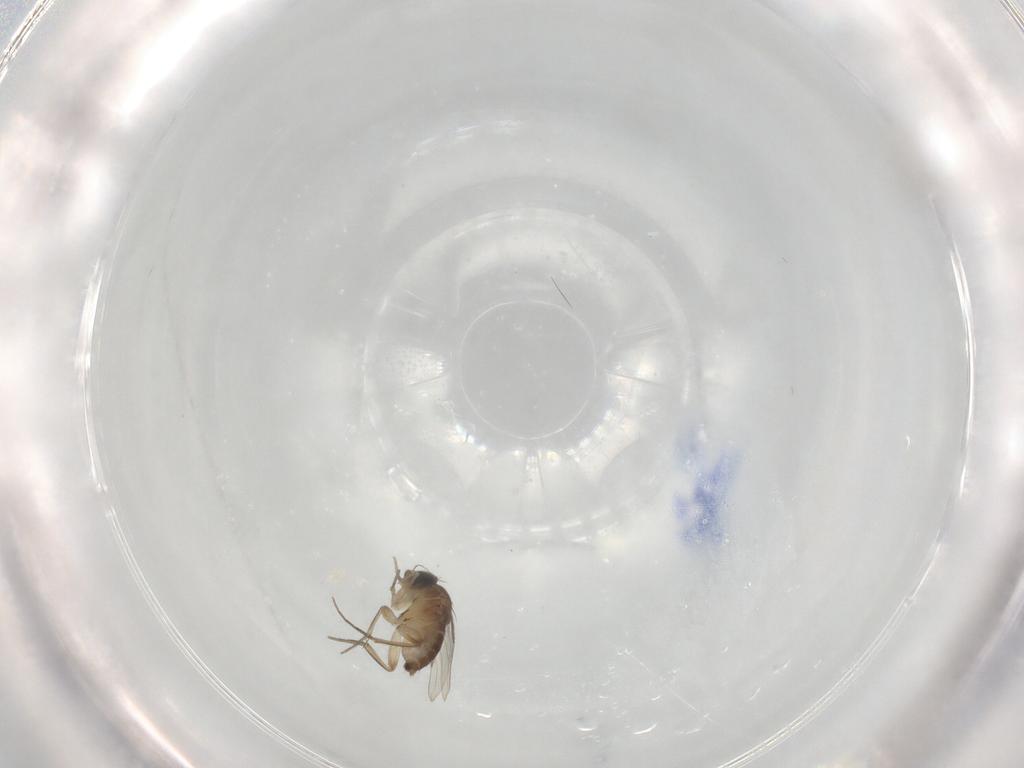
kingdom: Animalia
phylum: Arthropoda
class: Insecta
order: Diptera
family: Phoridae
